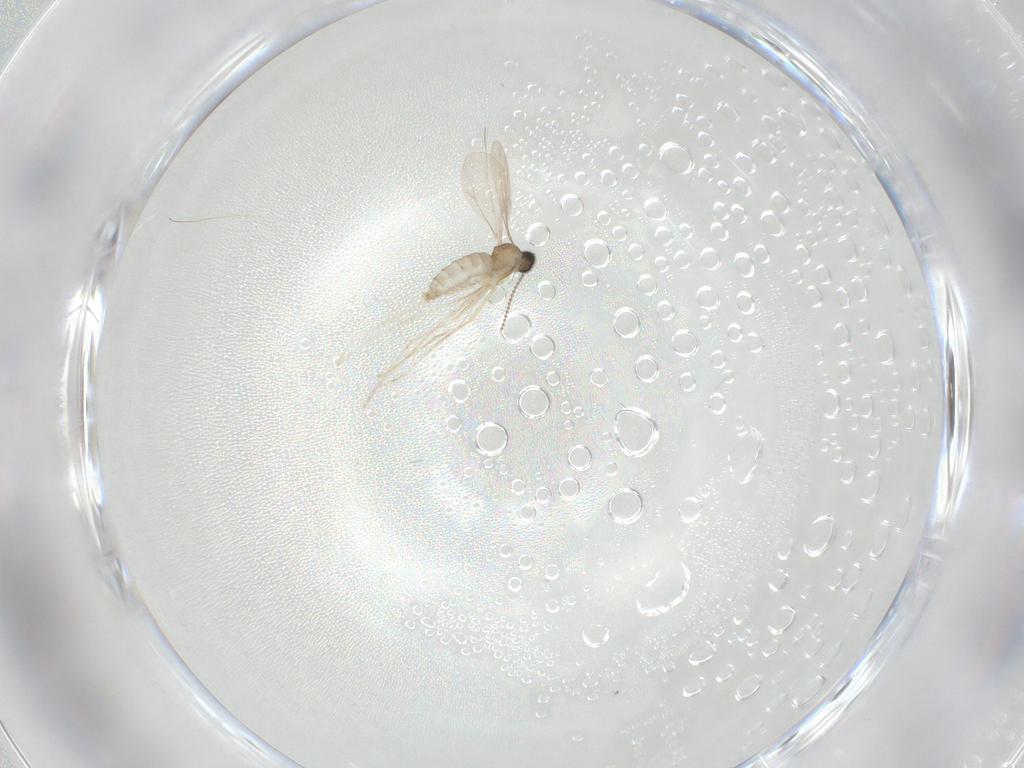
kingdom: Animalia
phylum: Arthropoda
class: Insecta
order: Diptera
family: Cecidomyiidae
